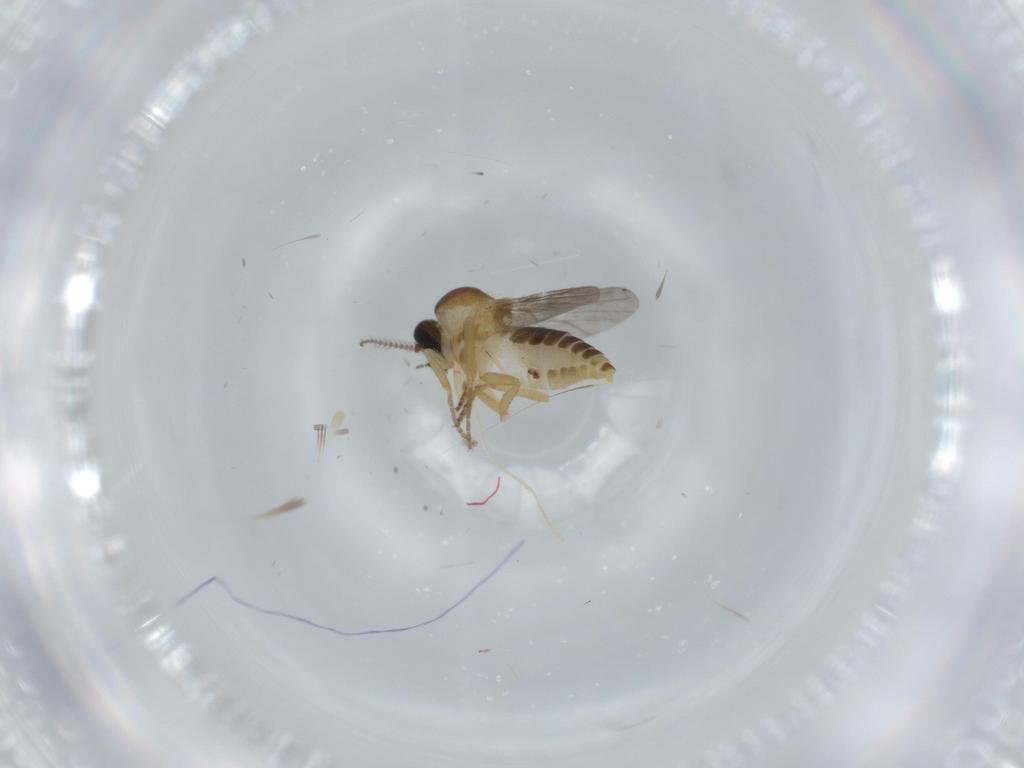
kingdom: Animalia
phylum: Arthropoda
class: Insecta
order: Diptera
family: Ceratopogonidae
